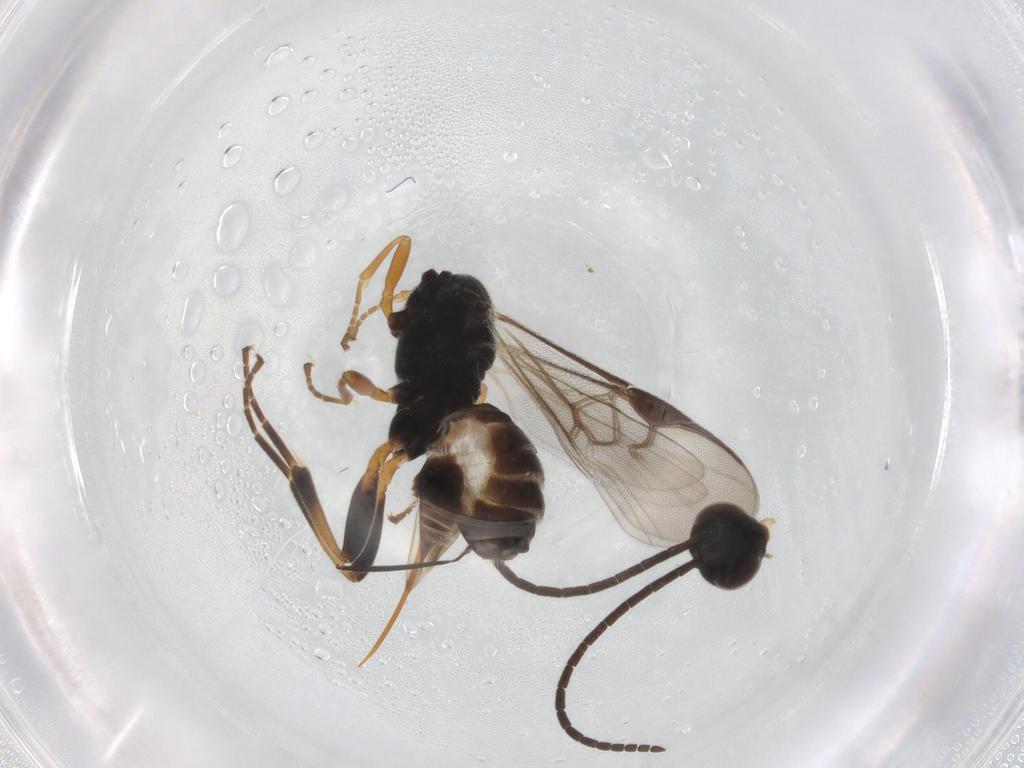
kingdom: Animalia
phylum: Arthropoda
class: Insecta
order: Hymenoptera
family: Braconidae
